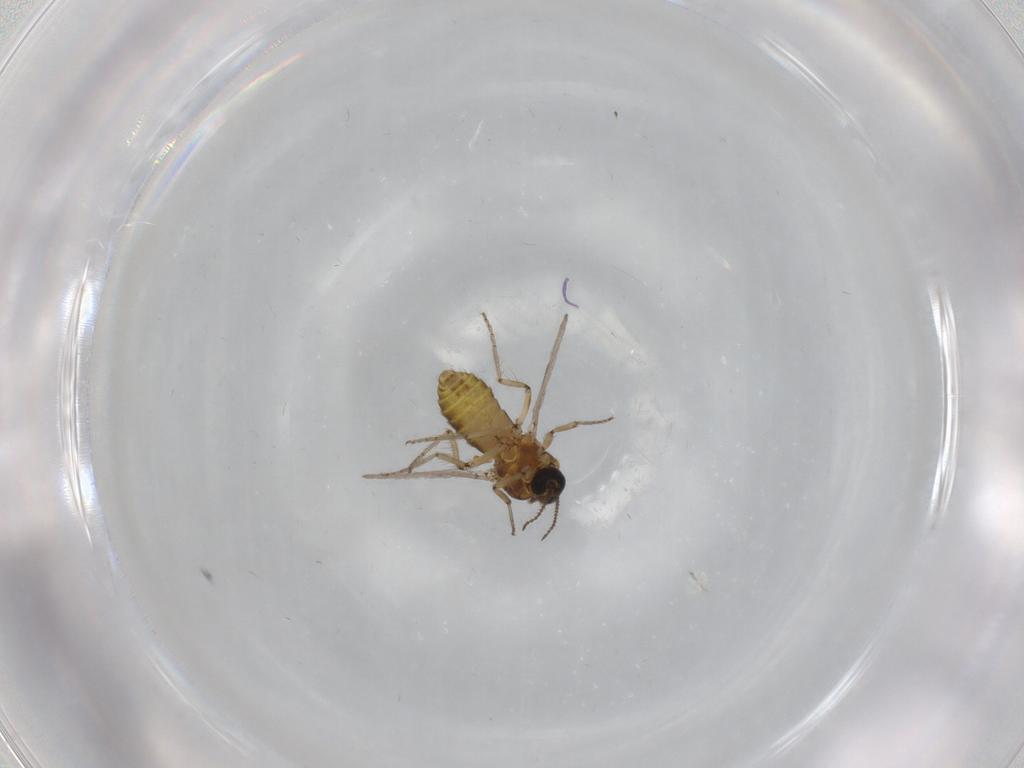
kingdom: Animalia
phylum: Arthropoda
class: Insecta
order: Diptera
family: Ceratopogonidae
